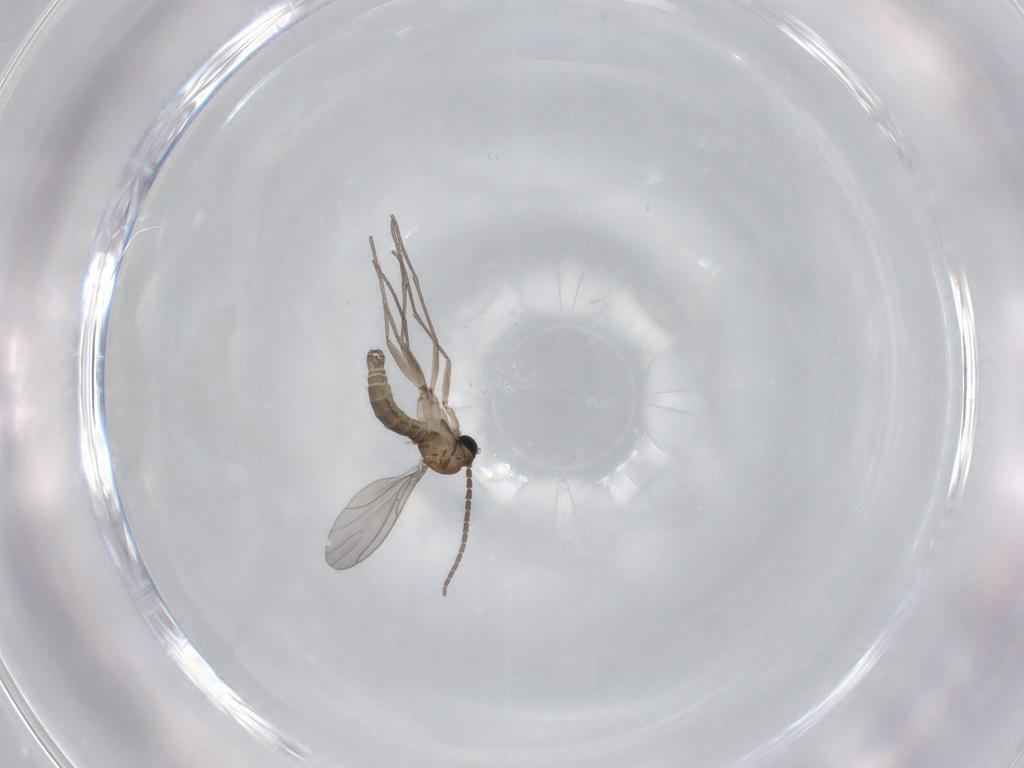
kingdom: Animalia
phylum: Arthropoda
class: Insecta
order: Diptera
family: Sciaridae
